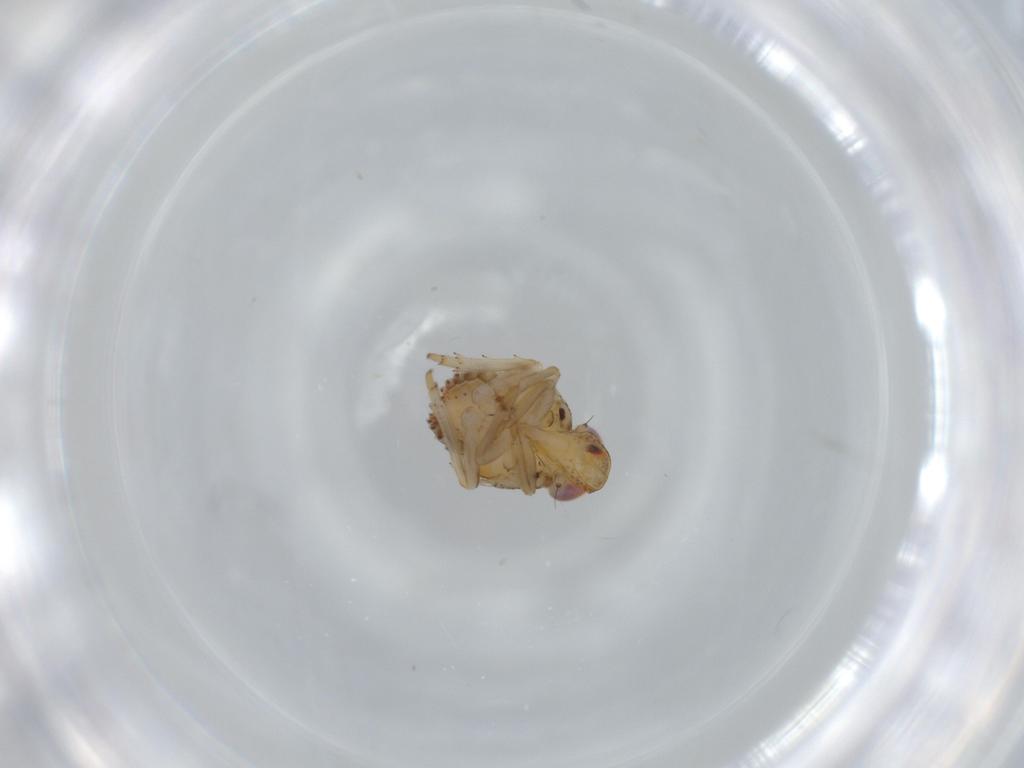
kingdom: Animalia
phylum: Arthropoda
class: Insecta
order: Hemiptera
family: Issidae
